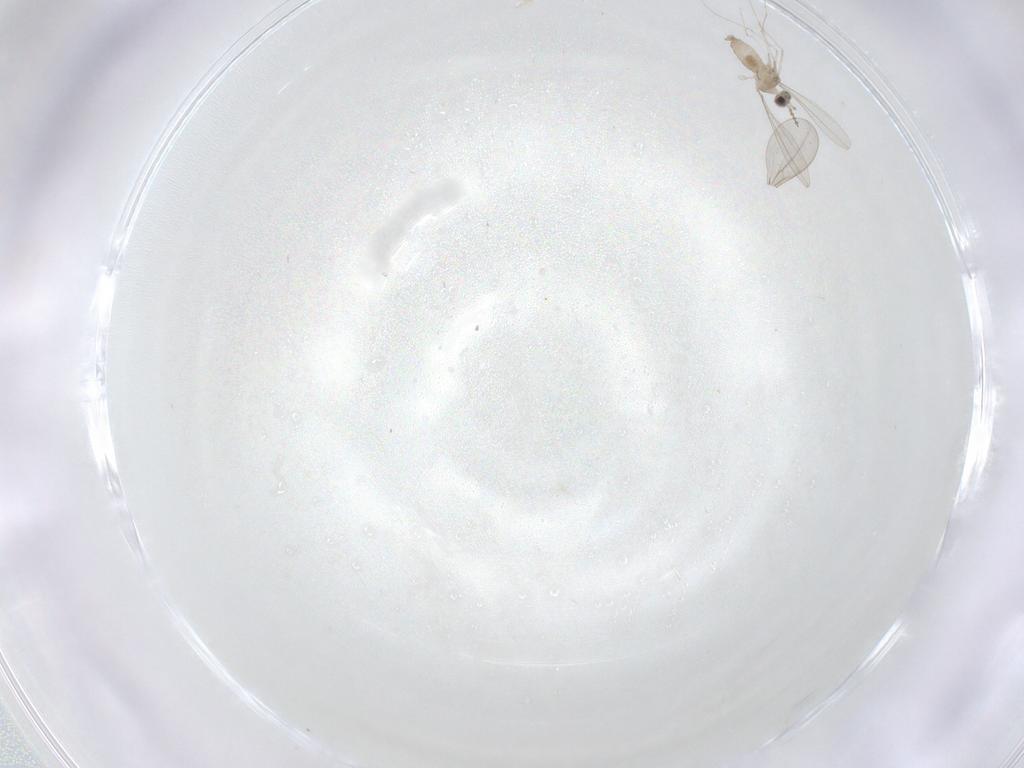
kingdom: Animalia
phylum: Arthropoda
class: Insecta
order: Diptera
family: Cecidomyiidae
